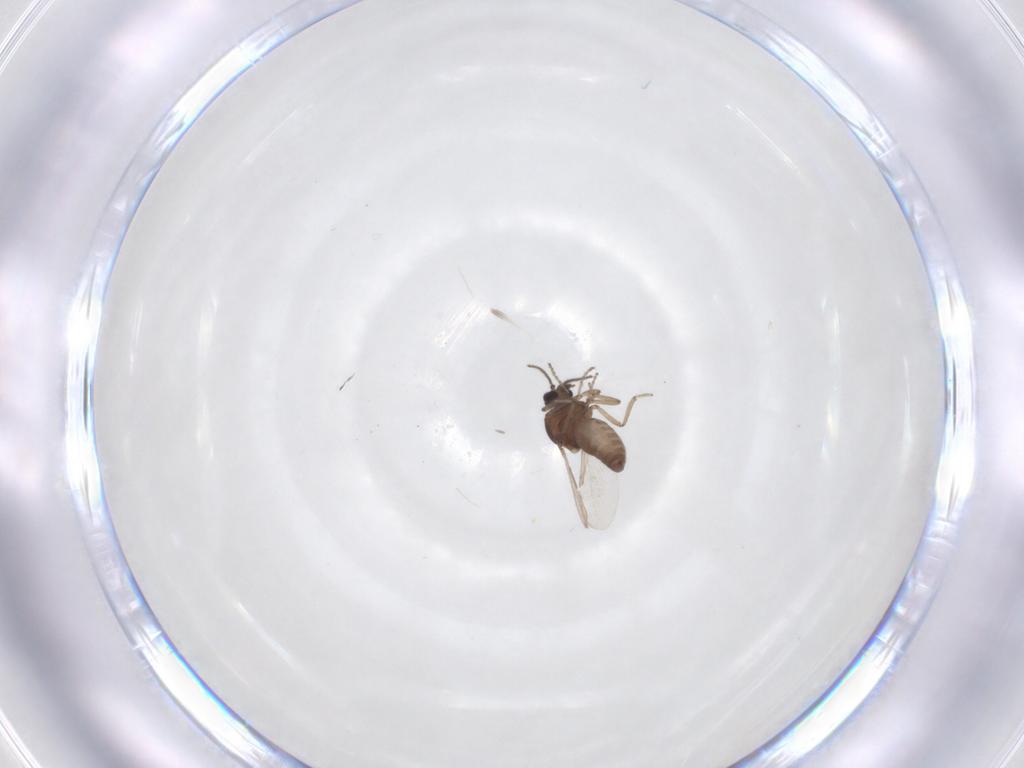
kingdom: Animalia
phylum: Arthropoda
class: Insecta
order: Diptera
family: Ceratopogonidae
